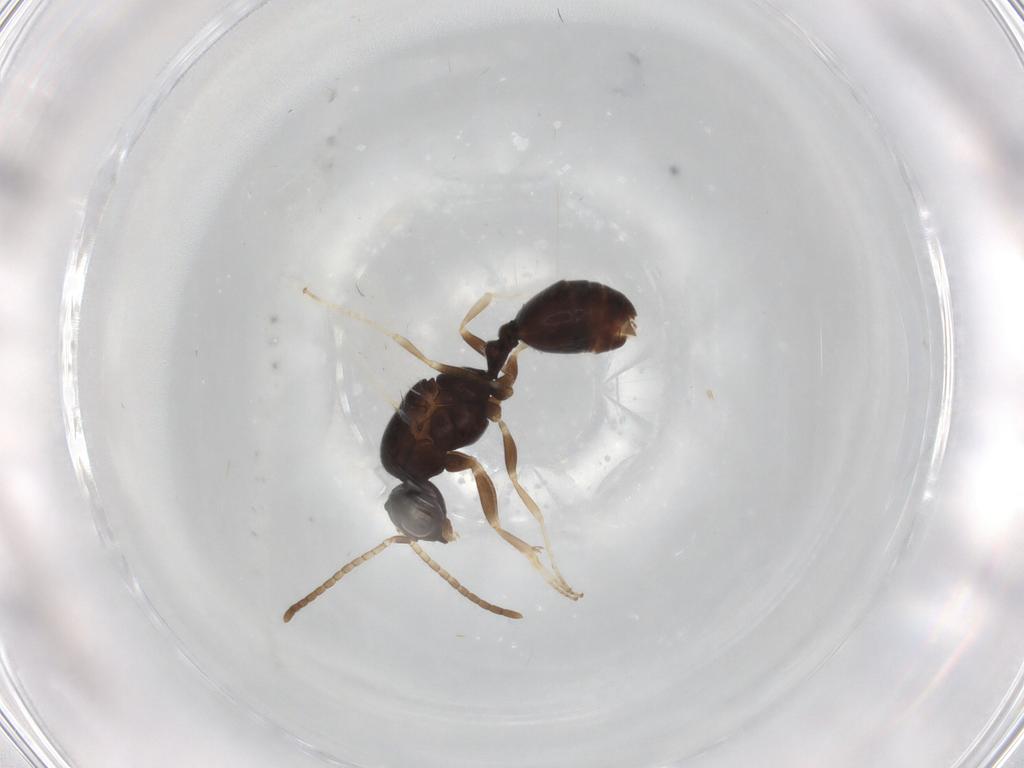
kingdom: Animalia
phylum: Arthropoda
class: Insecta
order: Hymenoptera
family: Formicidae
